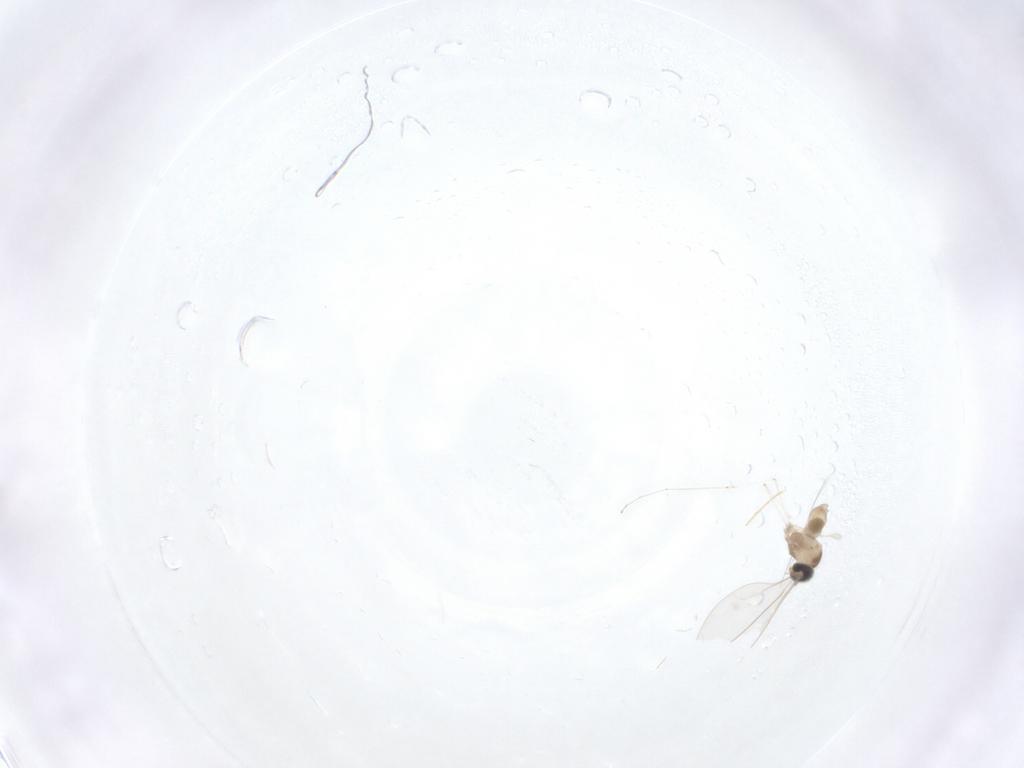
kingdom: Animalia
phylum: Arthropoda
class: Insecta
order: Diptera
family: Cecidomyiidae
